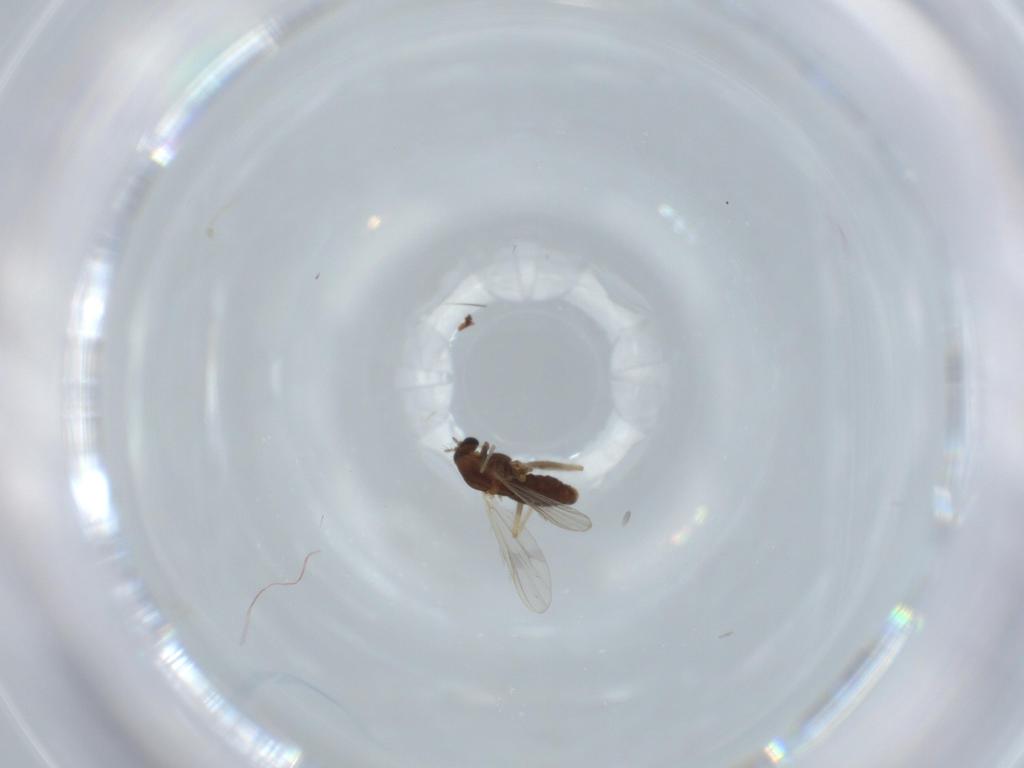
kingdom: Animalia
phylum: Arthropoda
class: Insecta
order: Diptera
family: Chironomidae
